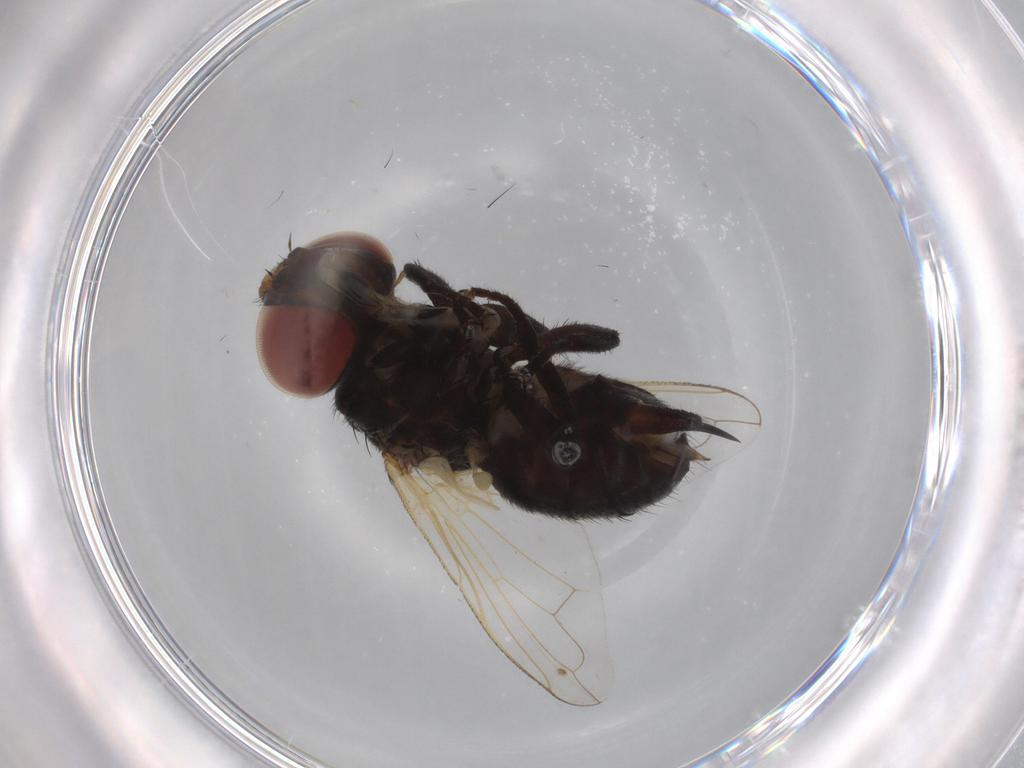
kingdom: Animalia
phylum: Arthropoda
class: Insecta
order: Diptera
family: Tachinidae
